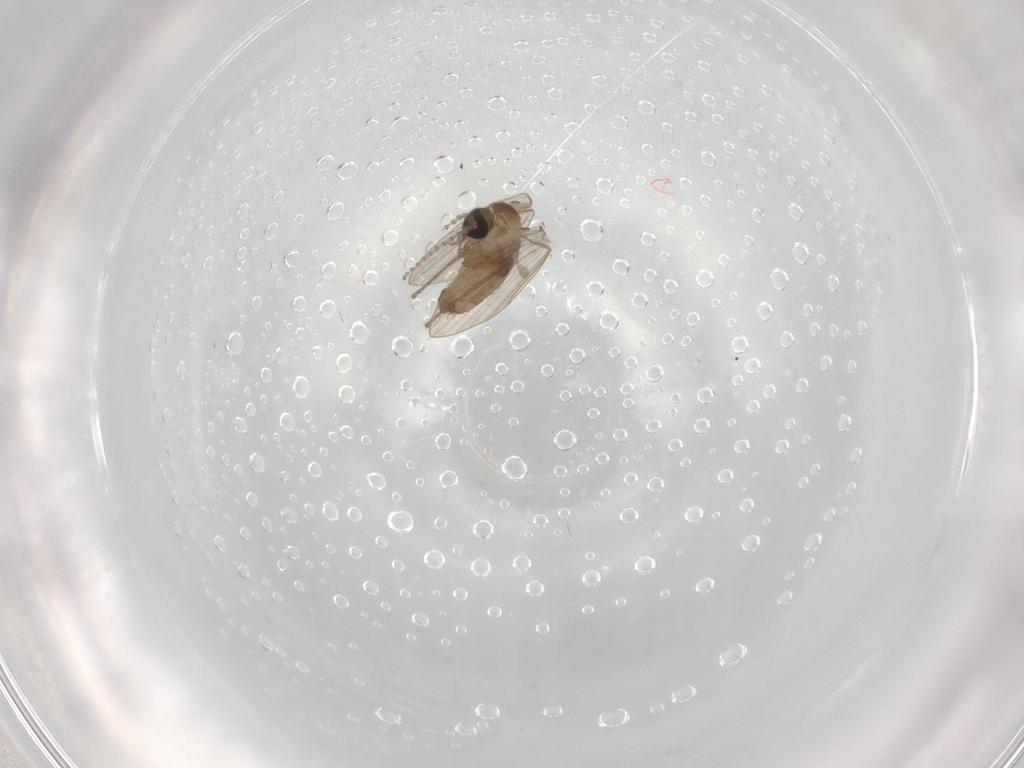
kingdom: Animalia
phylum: Arthropoda
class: Insecta
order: Diptera
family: Psychodidae
